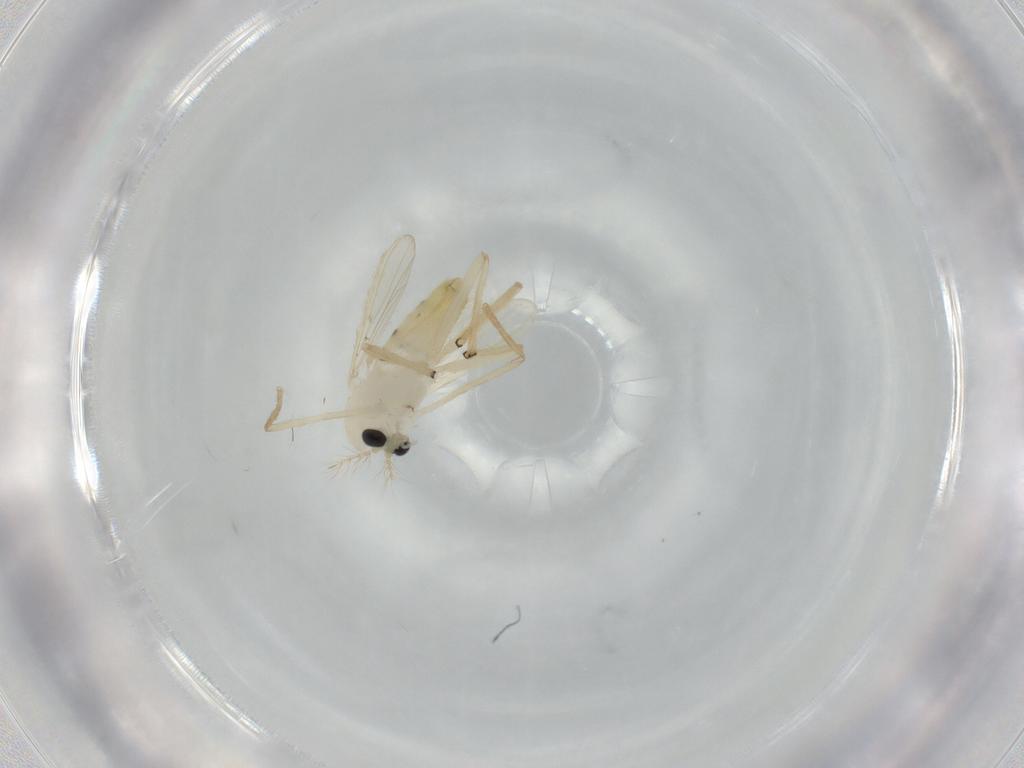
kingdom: Animalia
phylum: Arthropoda
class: Insecta
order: Diptera
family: Chironomidae
